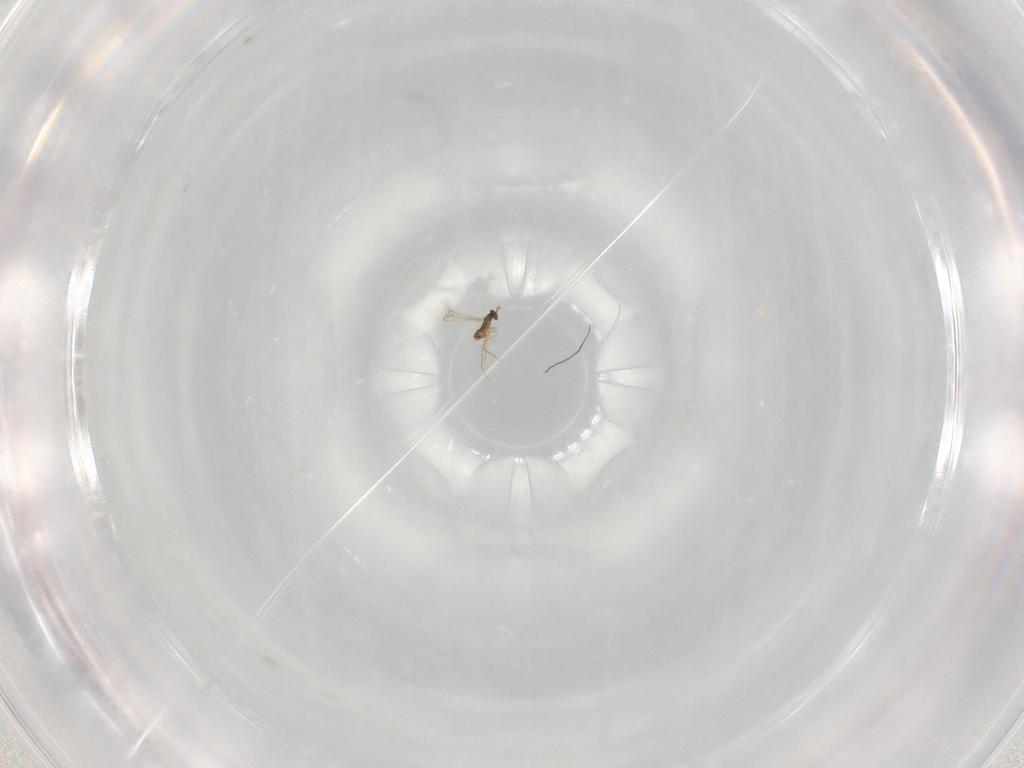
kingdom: Animalia
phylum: Arthropoda
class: Insecta
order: Hymenoptera
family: Mymaridae
